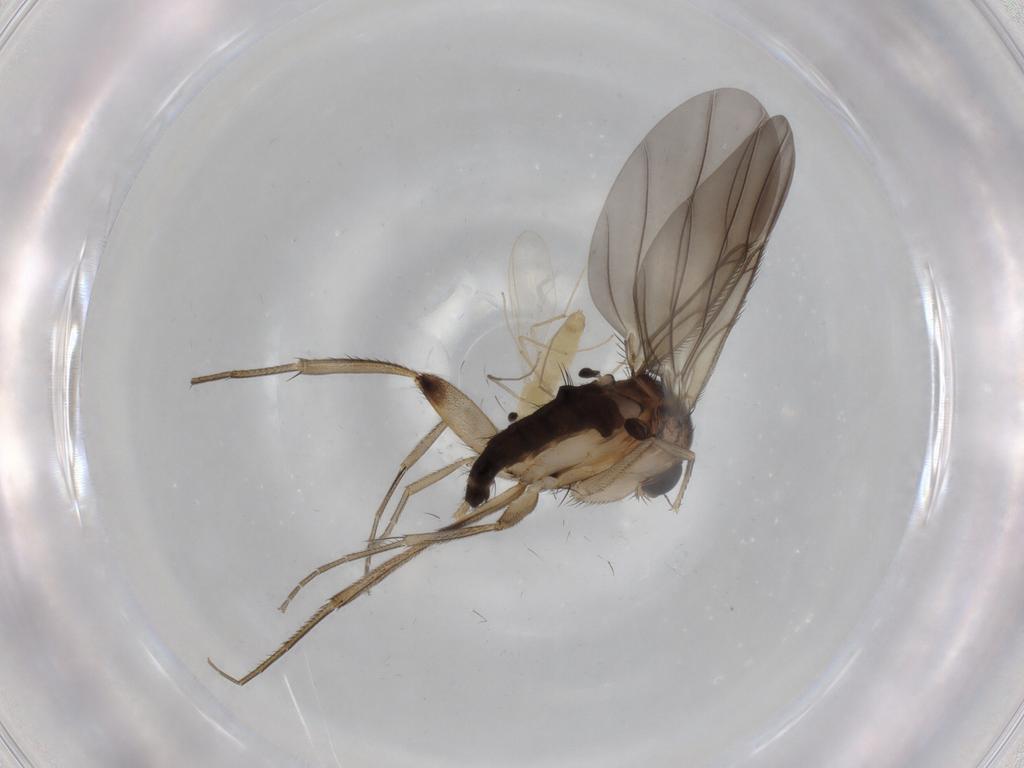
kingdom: Animalia
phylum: Arthropoda
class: Insecta
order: Diptera
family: Phoridae
